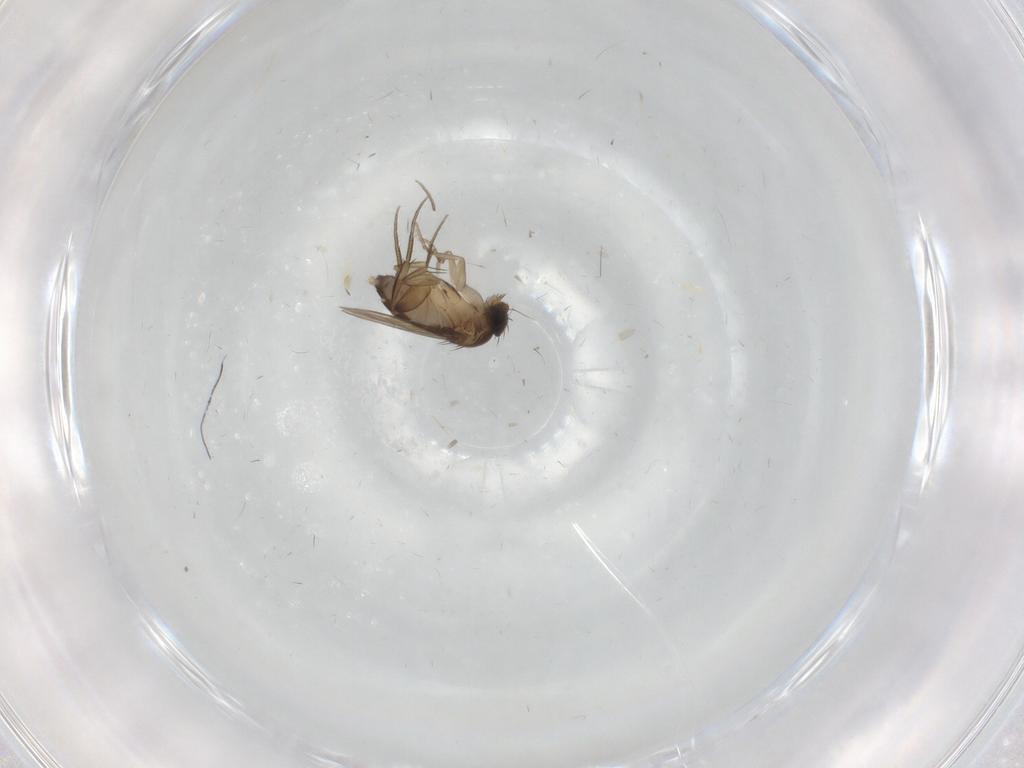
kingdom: Animalia
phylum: Arthropoda
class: Insecta
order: Diptera
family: Phoridae
